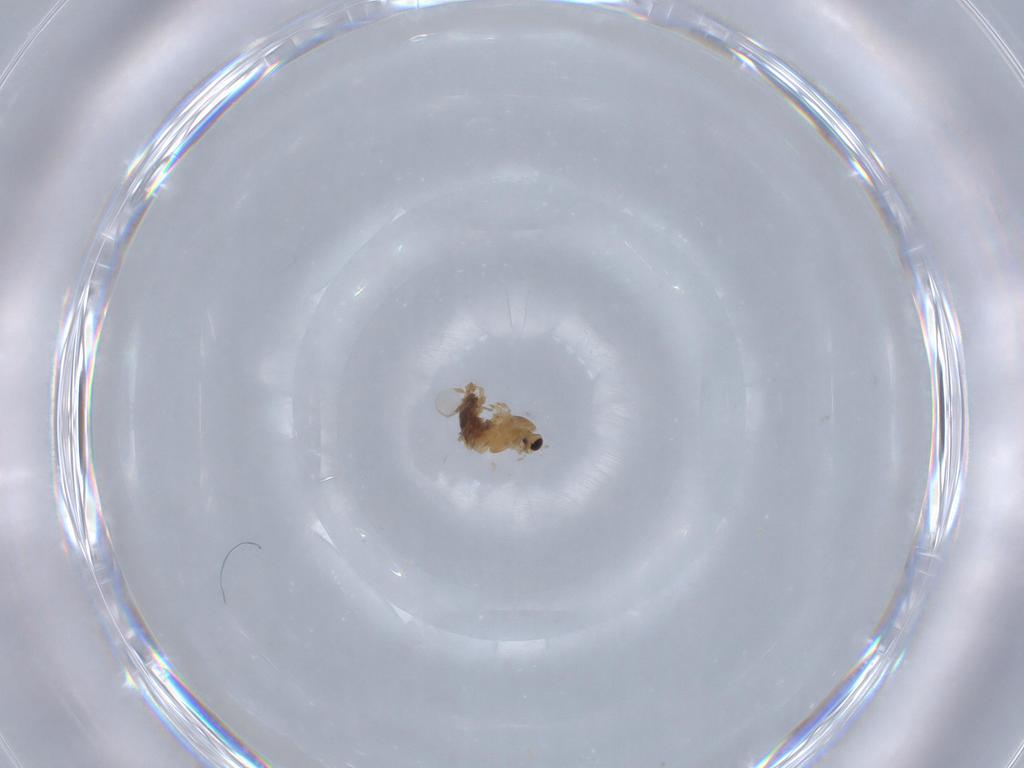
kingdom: Animalia
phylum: Arthropoda
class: Insecta
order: Diptera
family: Chironomidae
